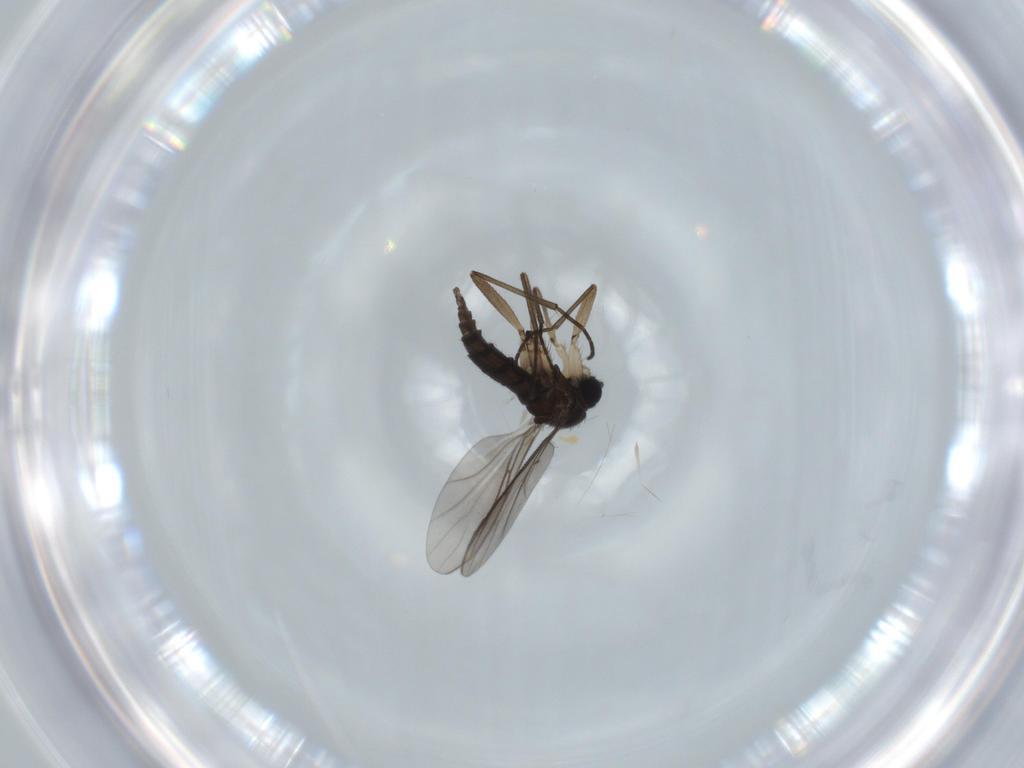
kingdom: Animalia
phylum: Arthropoda
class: Insecta
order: Diptera
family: Sciaridae
